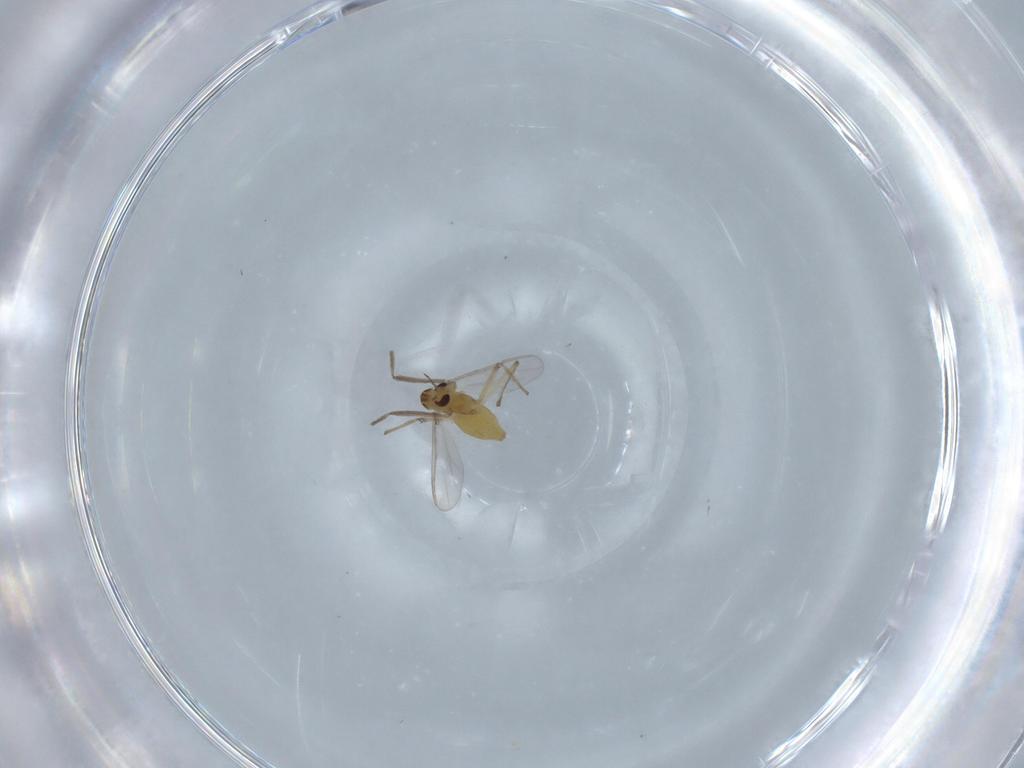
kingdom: Animalia
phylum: Arthropoda
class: Insecta
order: Diptera
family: Chironomidae
